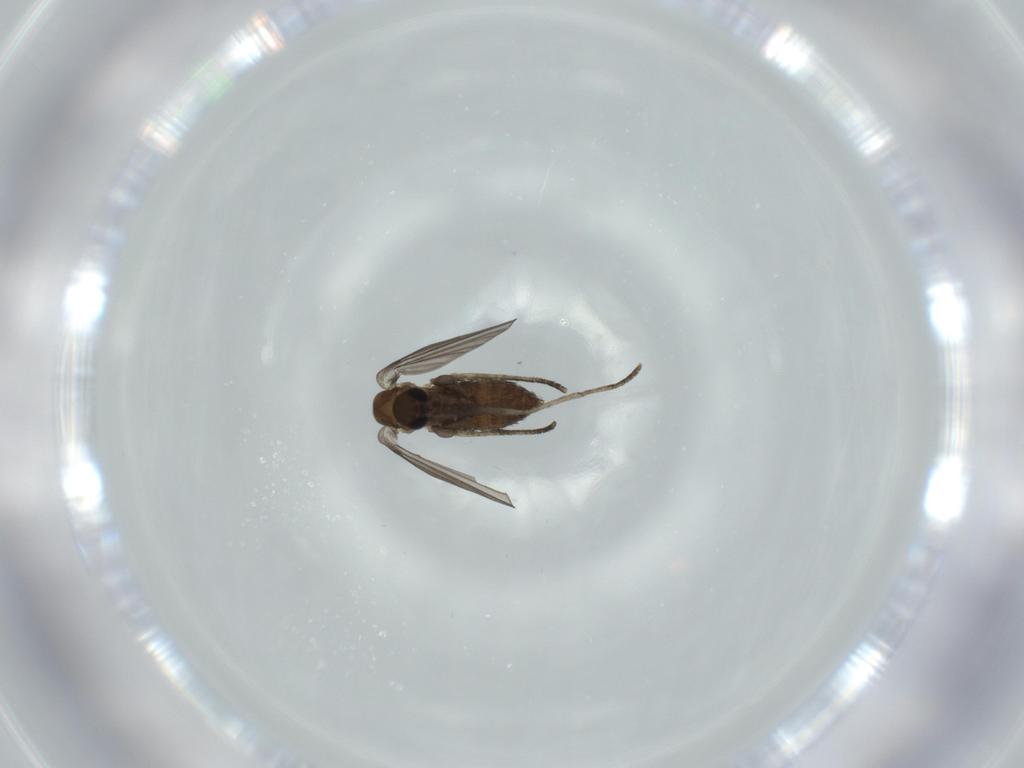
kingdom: Animalia
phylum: Arthropoda
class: Insecta
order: Diptera
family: Psychodidae
